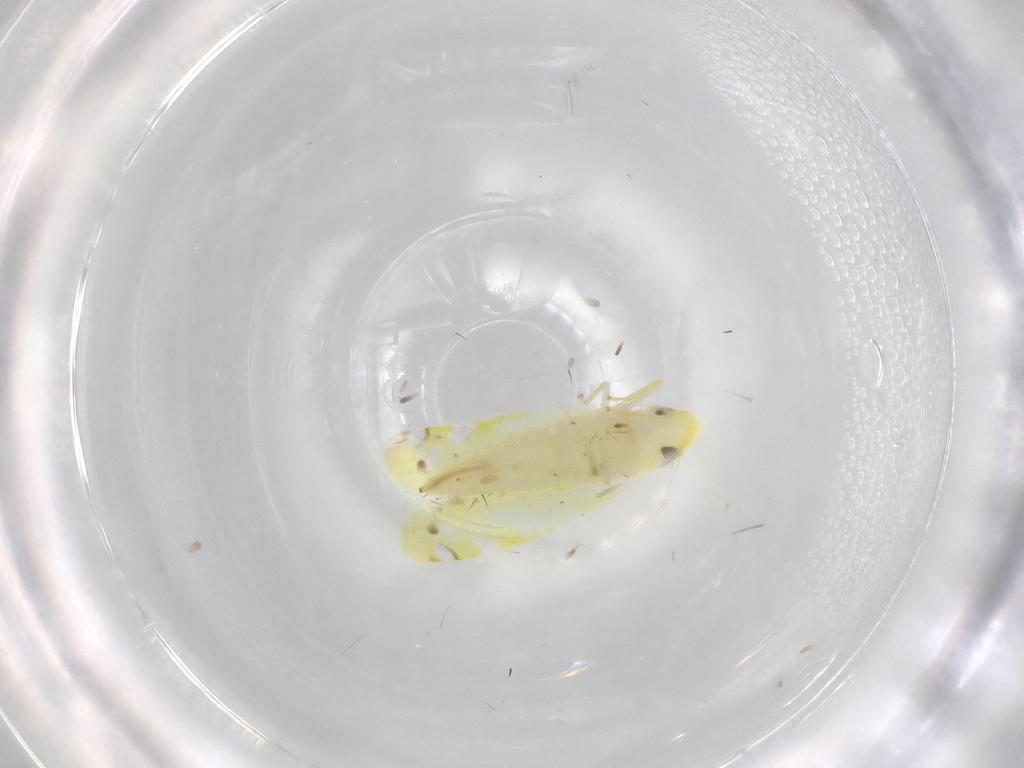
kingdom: Animalia
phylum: Arthropoda
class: Insecta
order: Hemiptera
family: Cicadellidae
